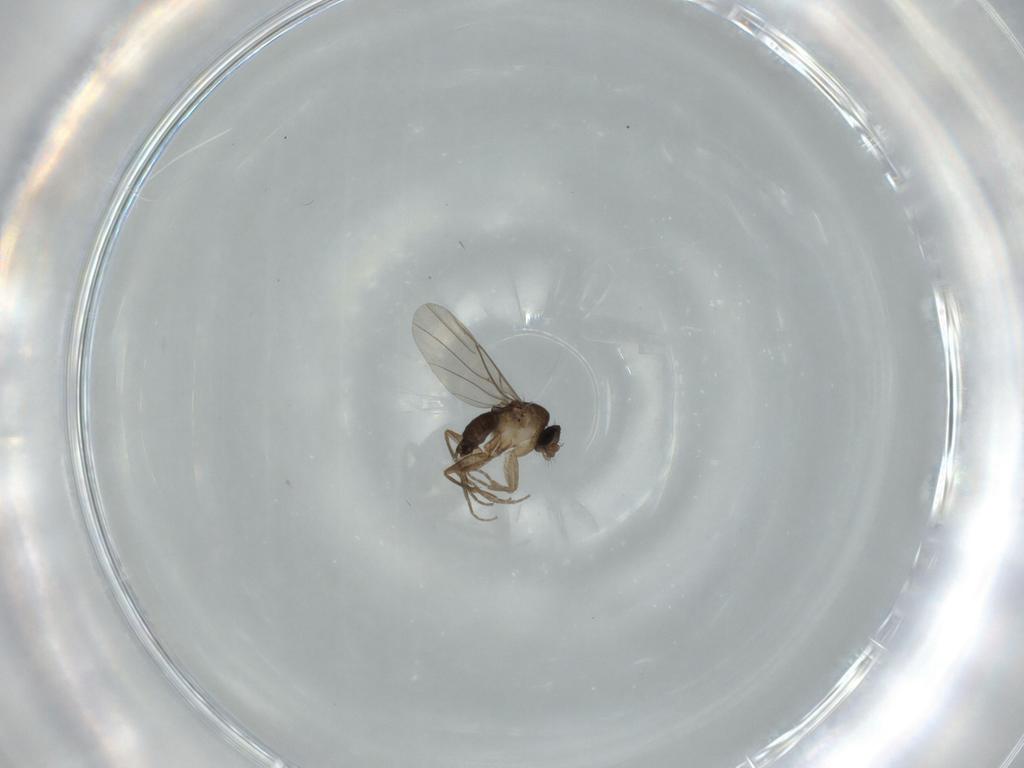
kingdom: Animalia
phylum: Arthropoda
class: Insecta
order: Diptera
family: Phoridae
